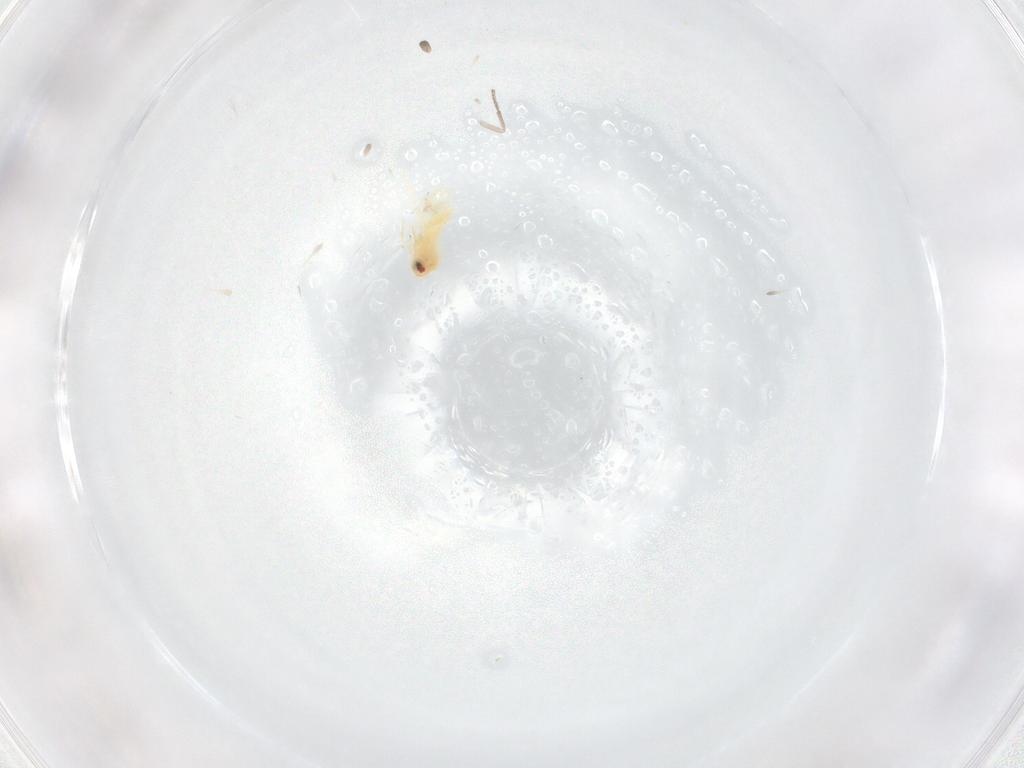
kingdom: Animalia
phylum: Arthropoda
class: Insecta
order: Hemiptera
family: Aleyrodidae
